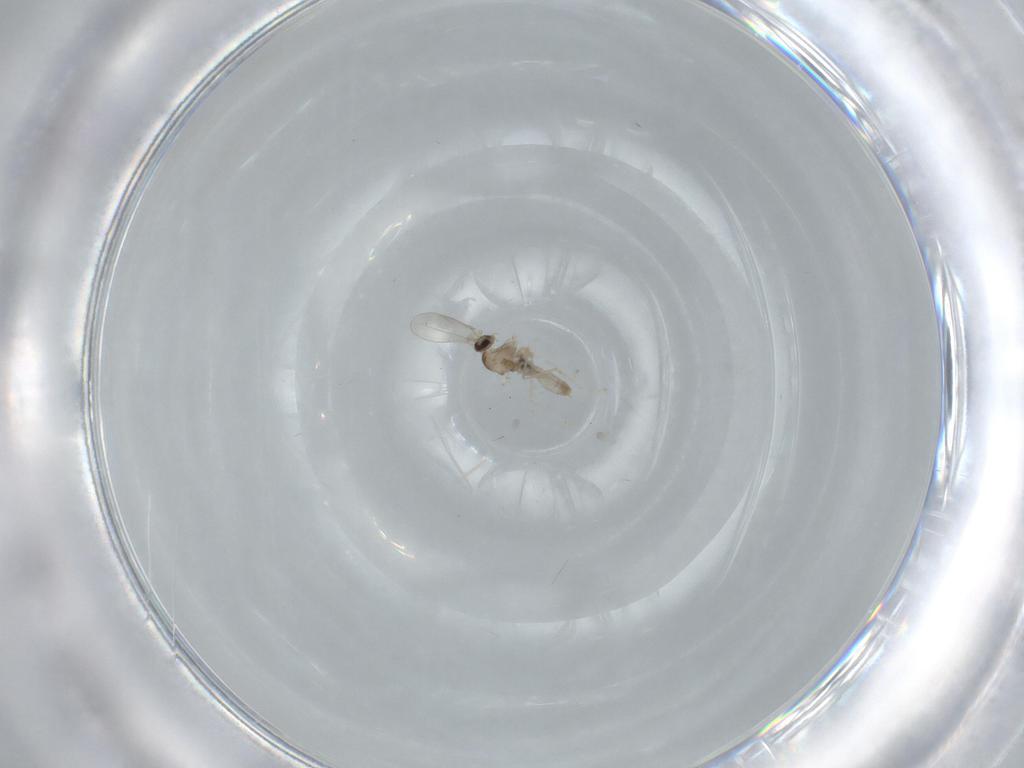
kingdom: Animalia
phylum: Arthropoda
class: Insecta
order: Diptera
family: Cecidomyiidae
